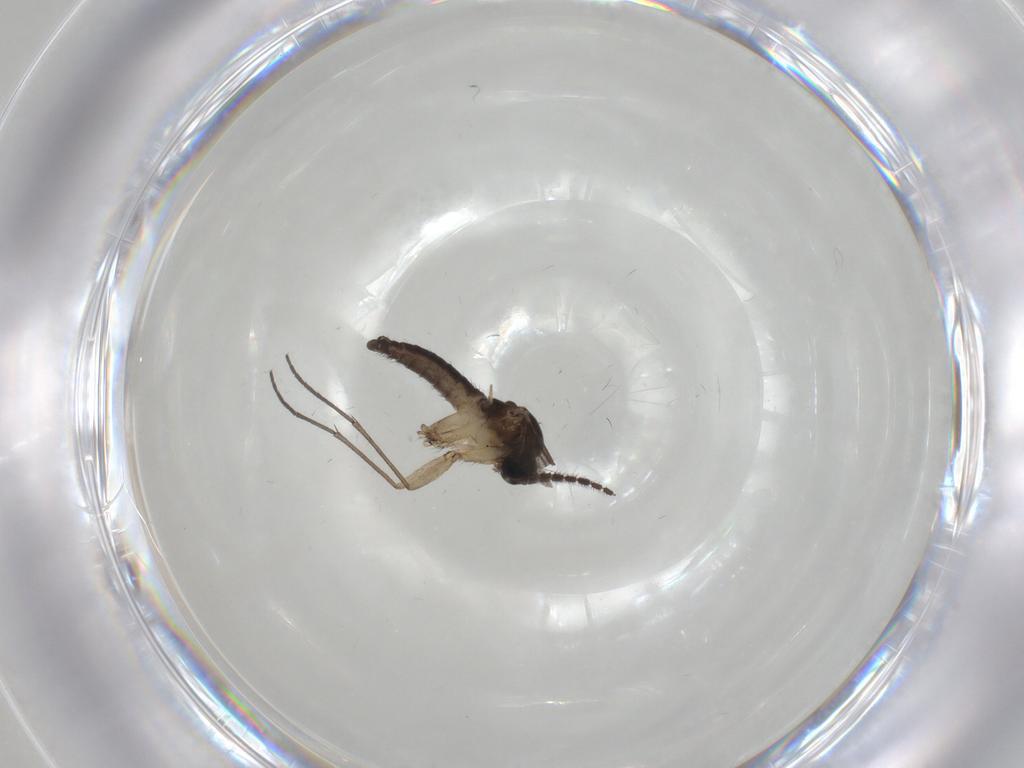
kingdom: Animalia
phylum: Arthropoda
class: Insecta
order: Diptera
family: Sciaridae
